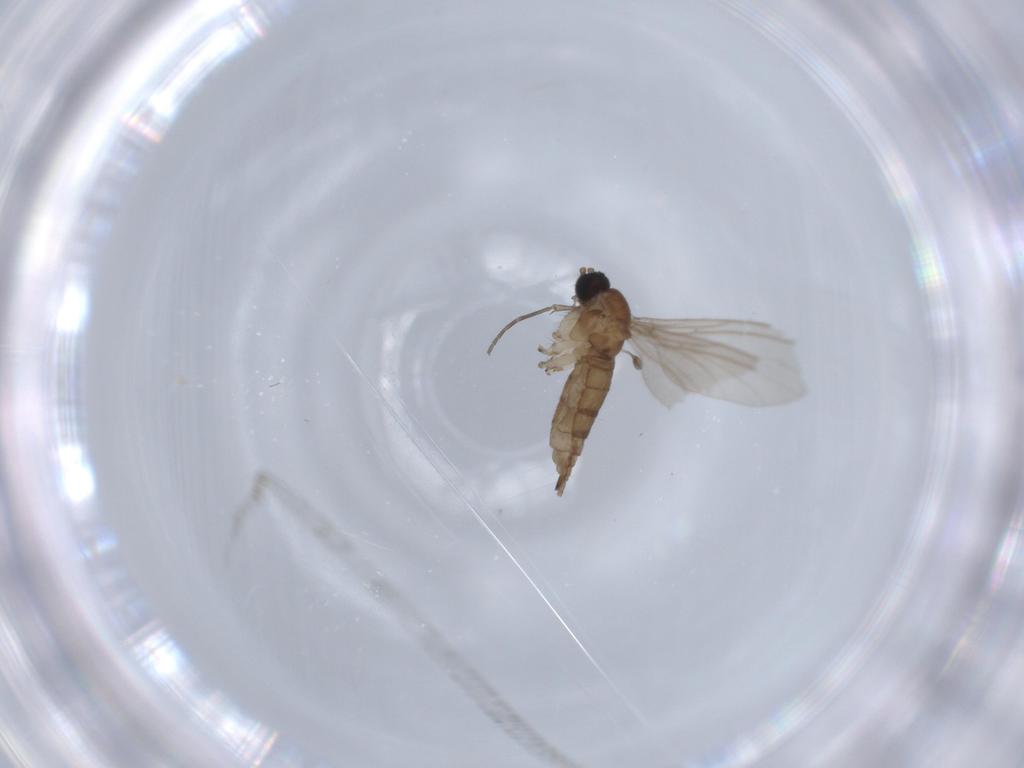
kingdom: Animalia
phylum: Arthropoda
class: Insecta
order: Diptera
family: Sciaridae
